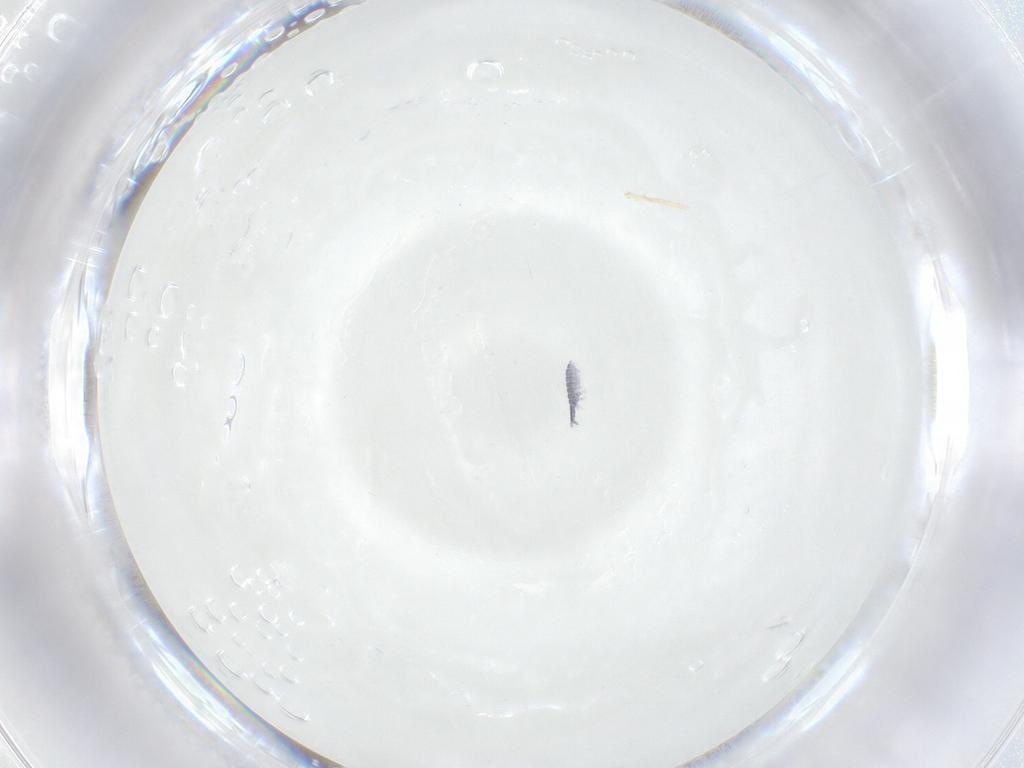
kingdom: Animalia
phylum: Arthropoda
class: Collembola
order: Poduromorpha
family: Hypogastruridae
